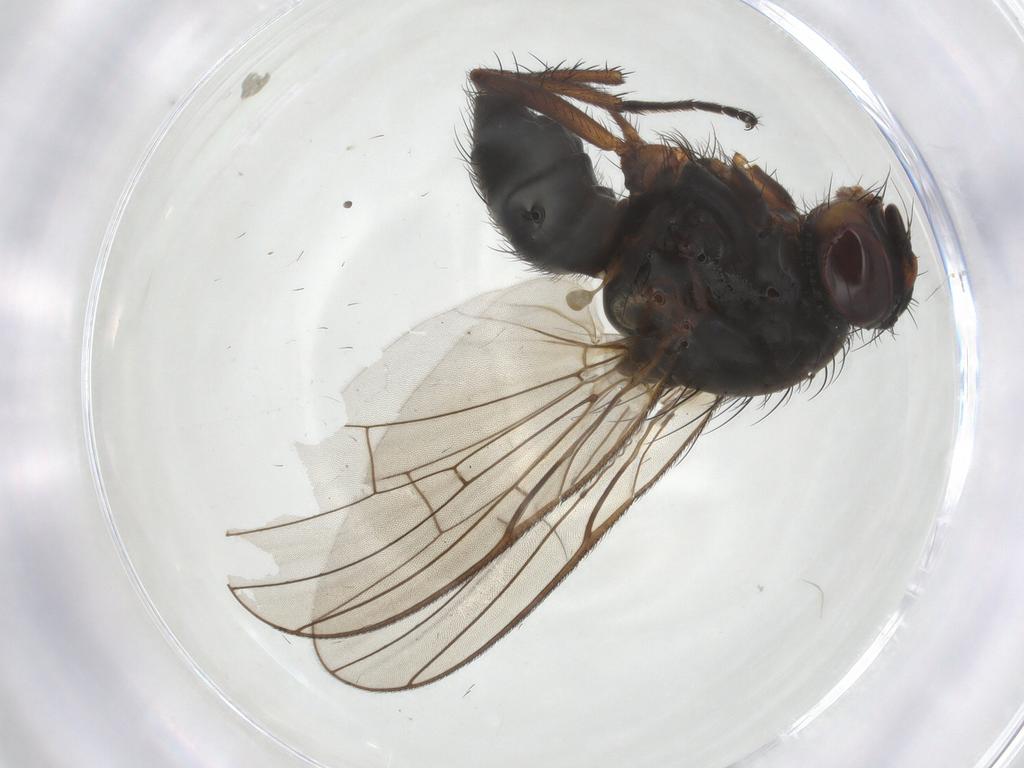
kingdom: Animalia
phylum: Arthropoda
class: Insecta
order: Diptera
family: Anthomyiidae
